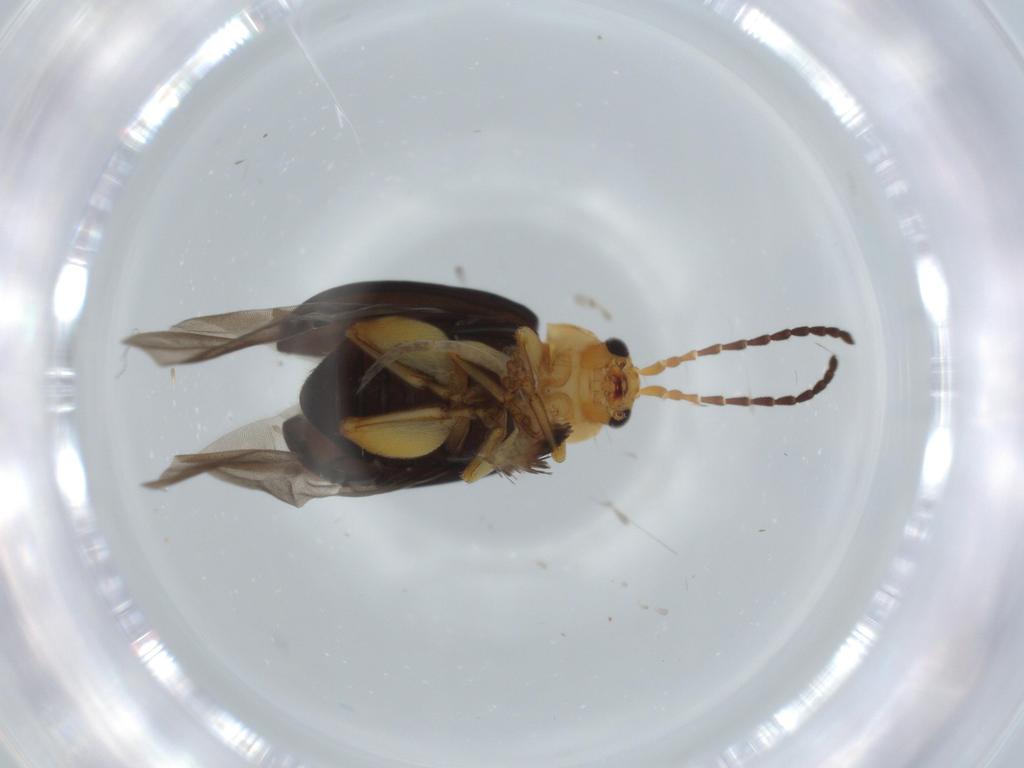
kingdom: Animalia
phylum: Arthropoda
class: Insecta
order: Coleoptera
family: Chrysomelidae
